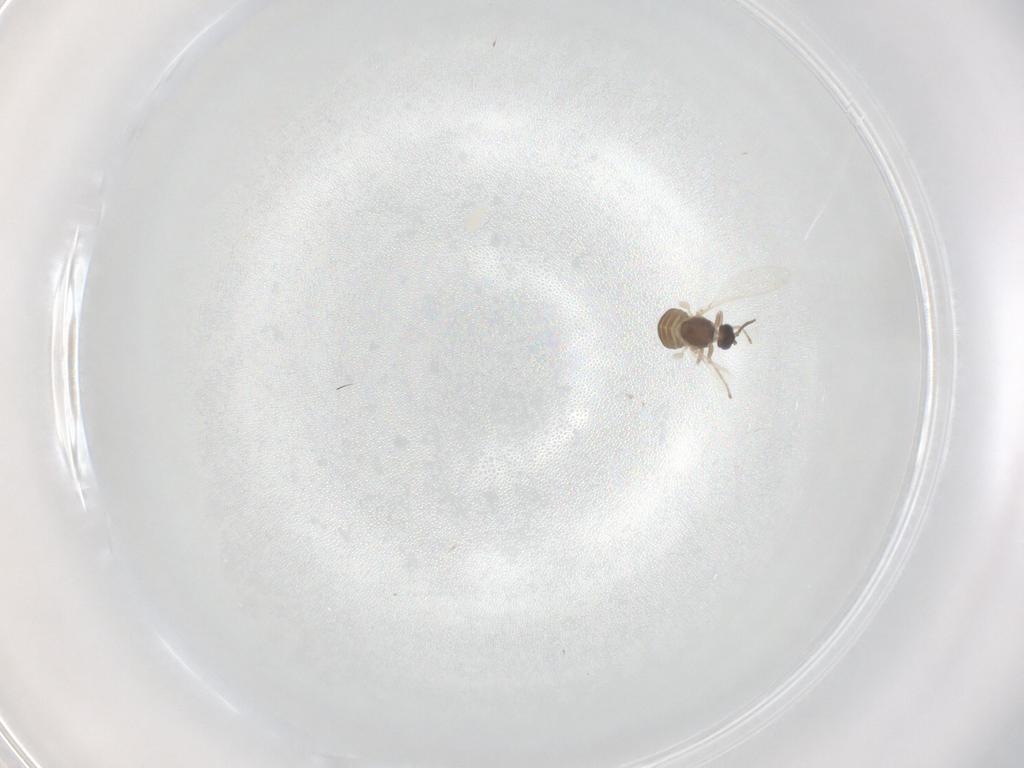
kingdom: Animalia
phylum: Arthropoda
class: Insecta
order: Diptera
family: Cecidomyiidae
